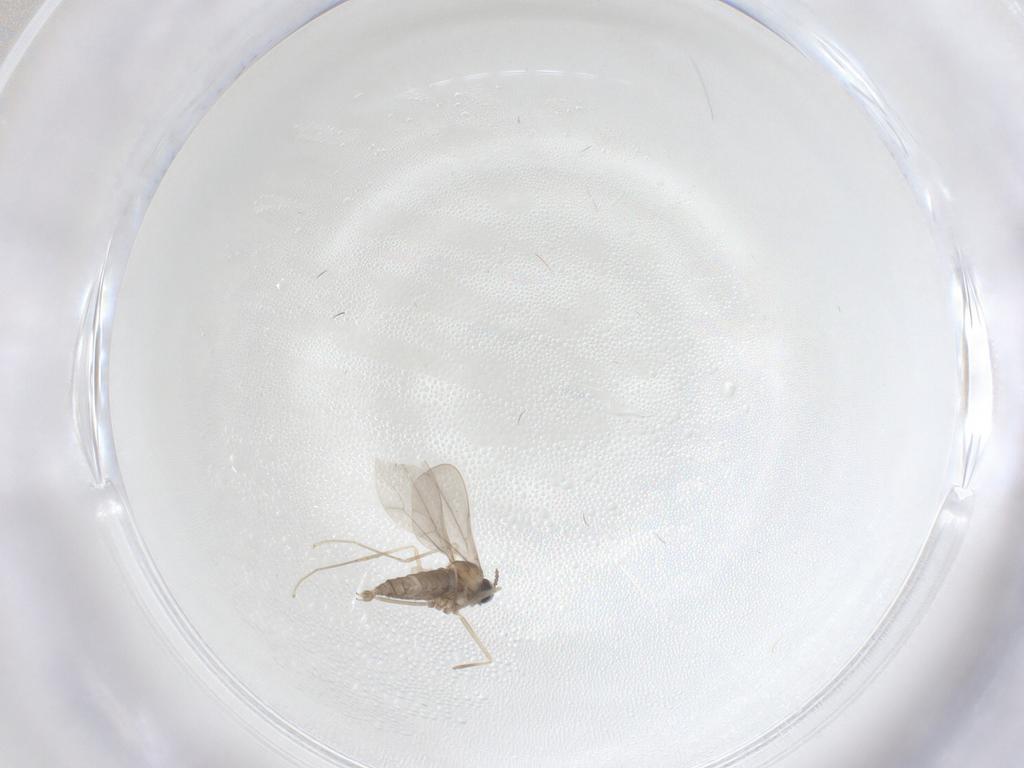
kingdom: Animalia
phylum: Arthropoda
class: Insecta
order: Diptera
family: Cecidomyiidae
